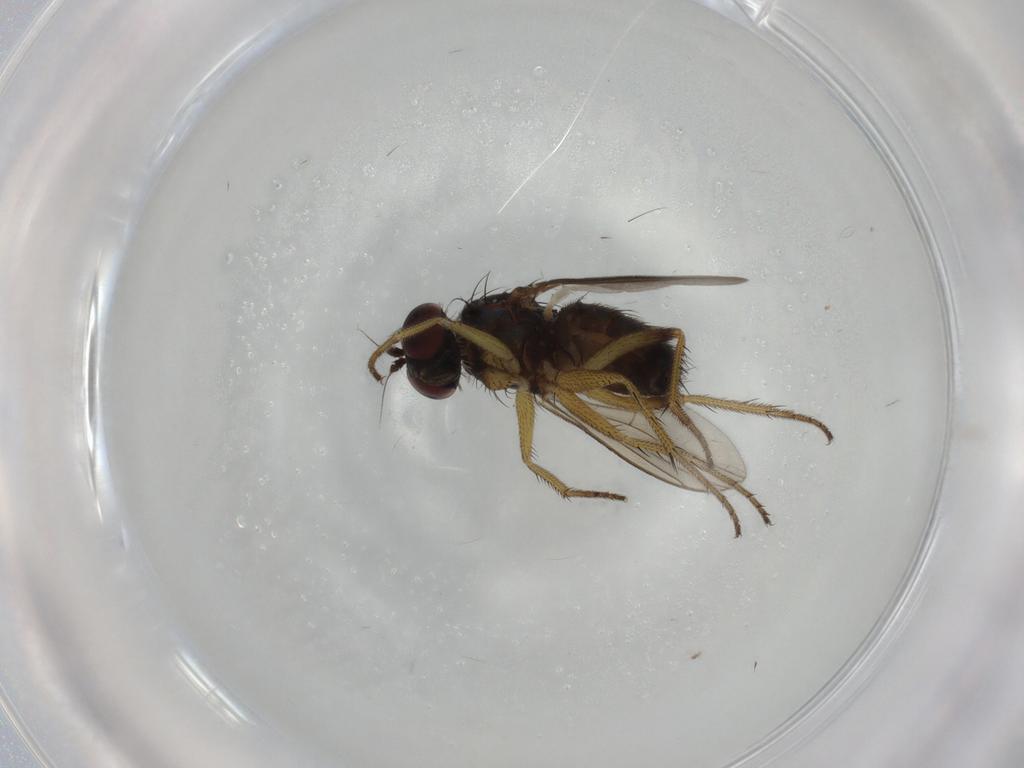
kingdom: Animalia
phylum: Arthropoda
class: Insecta
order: Diptera
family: Dolichopodidae
